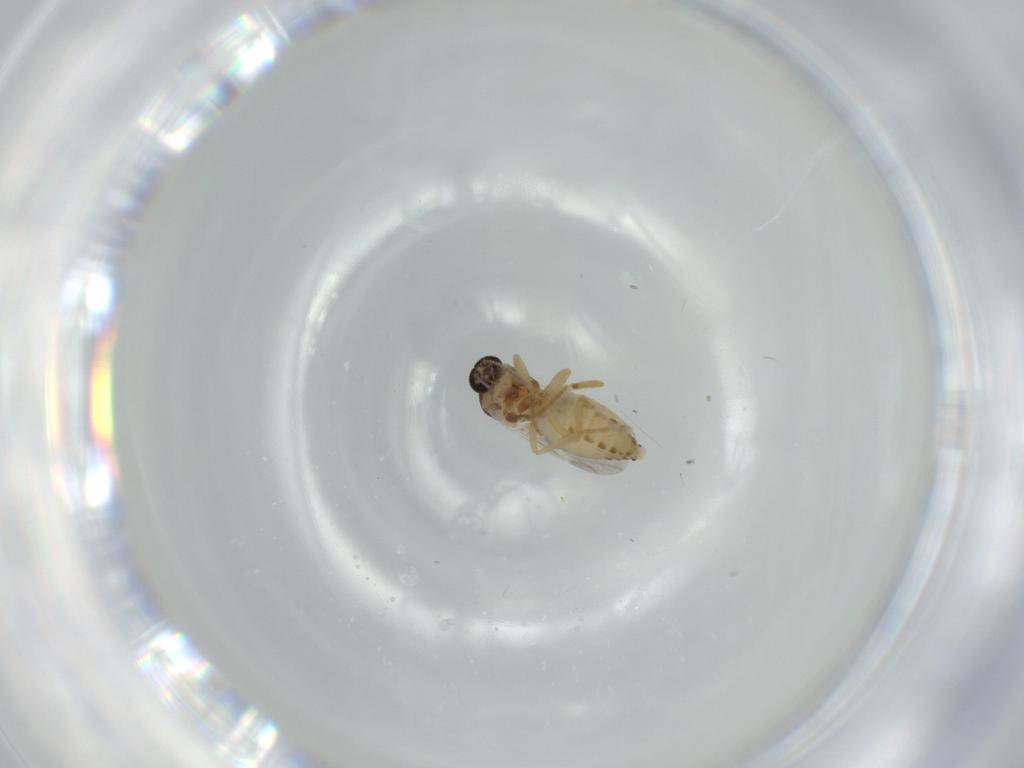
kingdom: Animalia
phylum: Arthropoda
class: Insecta
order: Diptera
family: Ceratopogonidae
